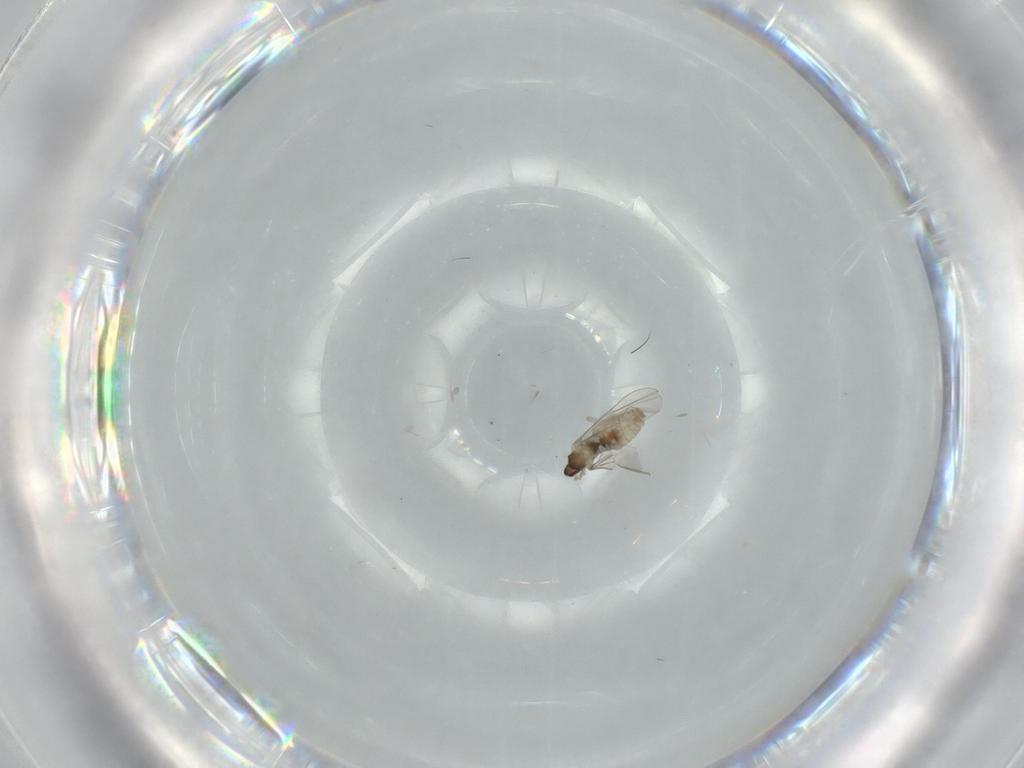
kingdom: Animalia
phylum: Arthropoda
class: Insecta
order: Diptera
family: Cecidomyiidae
